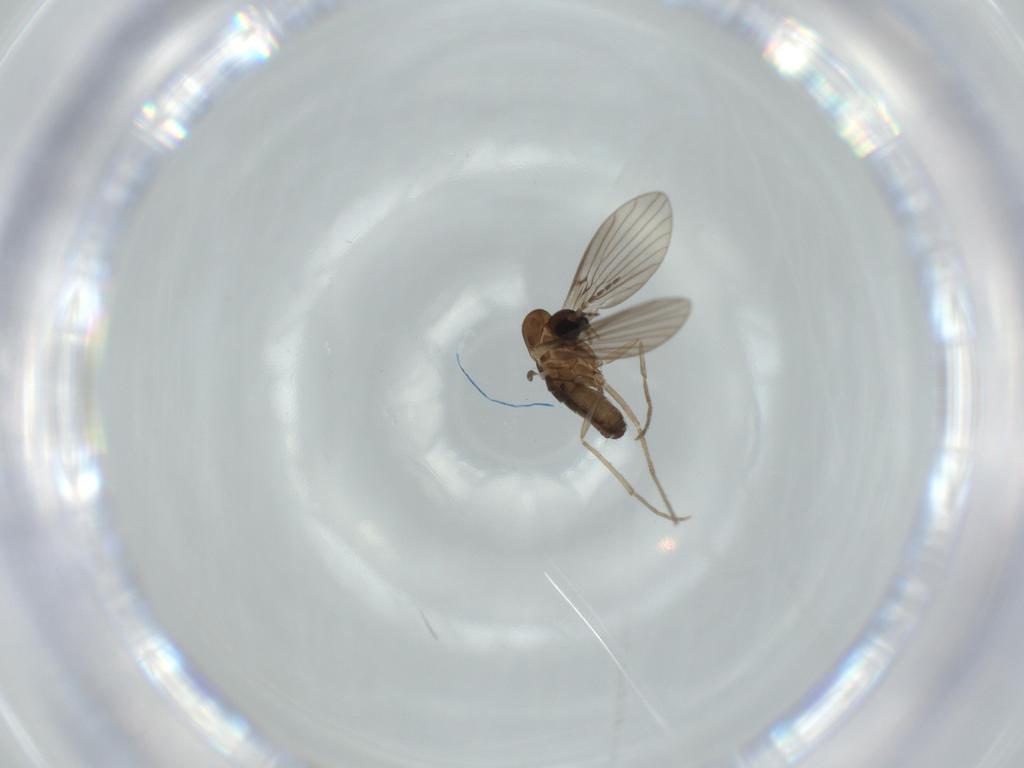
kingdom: Animalia
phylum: Arthropoda
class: Insecta
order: Diptera
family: Psychodidae
